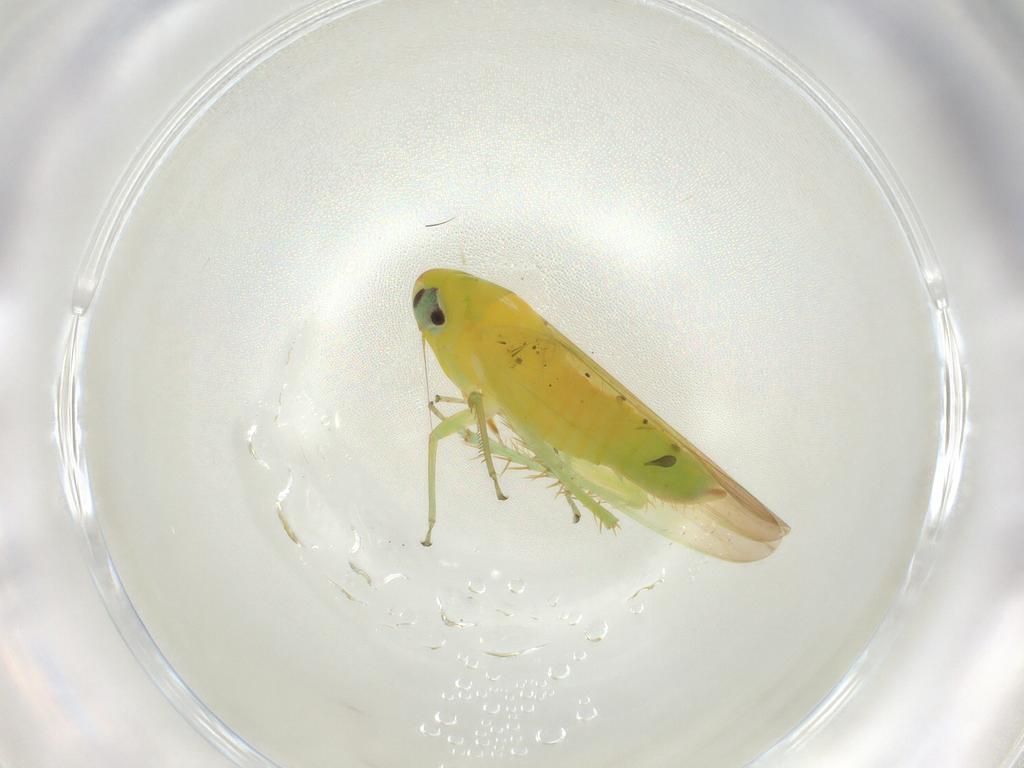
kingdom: Animalia
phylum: Arthropoda
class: Insecta
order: Hemiptera
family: Cicadellidae
